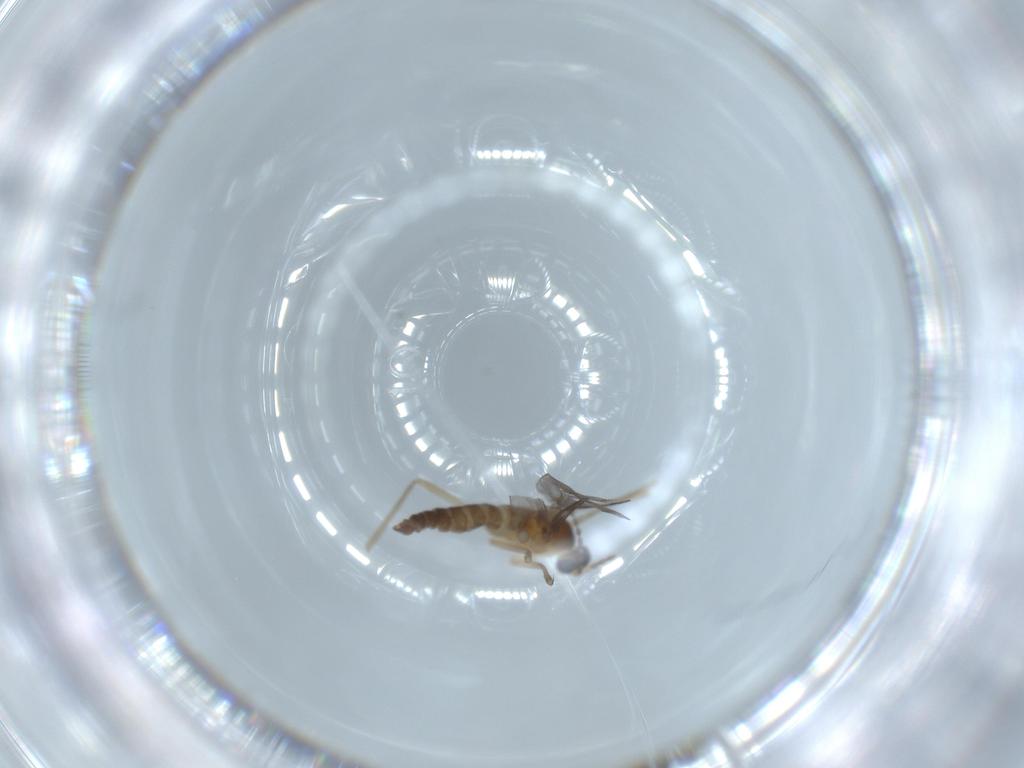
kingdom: Animalia
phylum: Arthropoda
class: Insecta
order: Diptera
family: Cecidomyiidae
